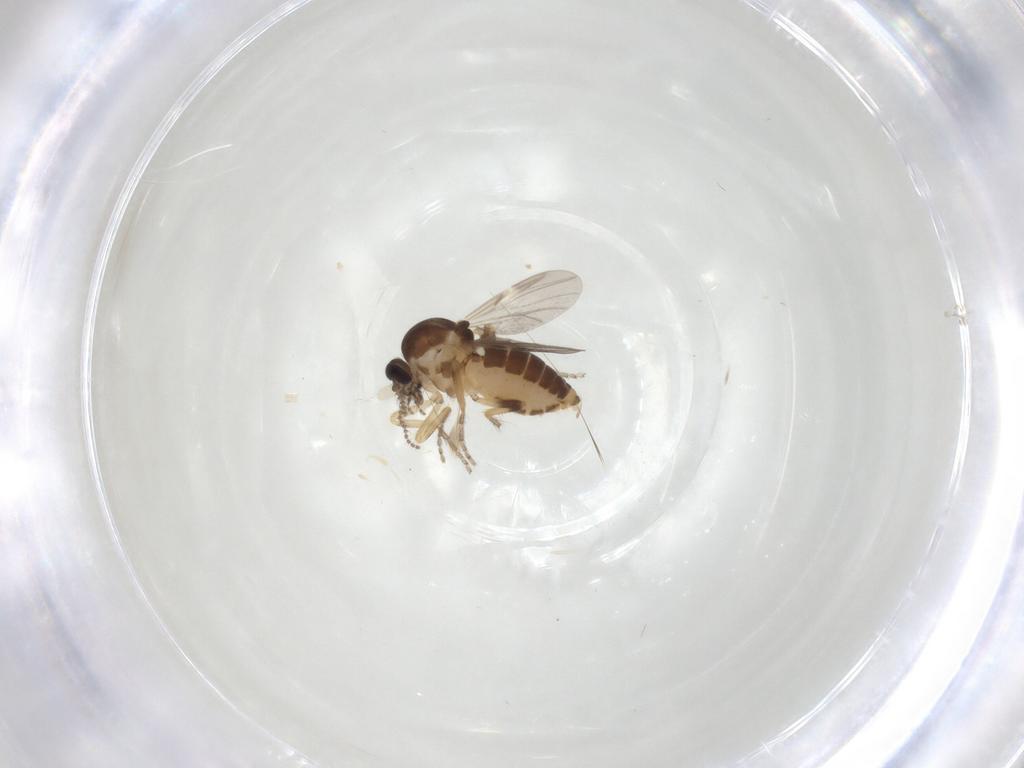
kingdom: Animalia
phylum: Arthropoda
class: Insecta
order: Diptera
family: Ceratopogonidae
